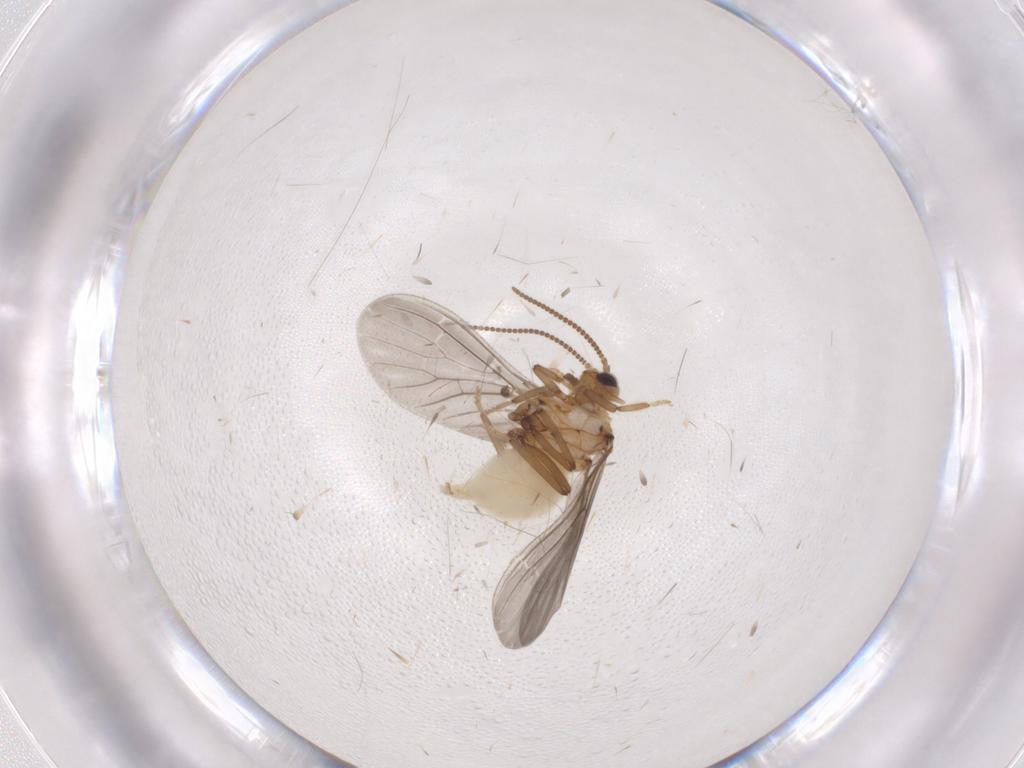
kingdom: Animalia
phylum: Arthropoda
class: Insecta
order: Neuroptera
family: Coniopterygidae
